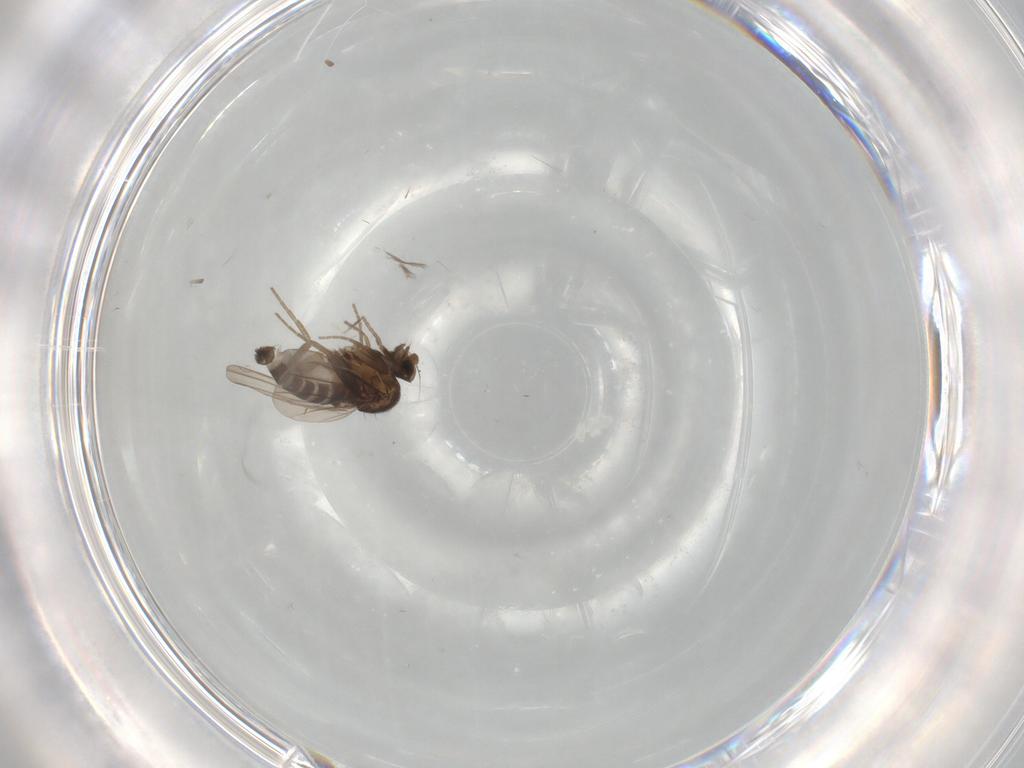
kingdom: Animalia
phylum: Arthropoda
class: Insecta
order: Diptera
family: Phoridae
